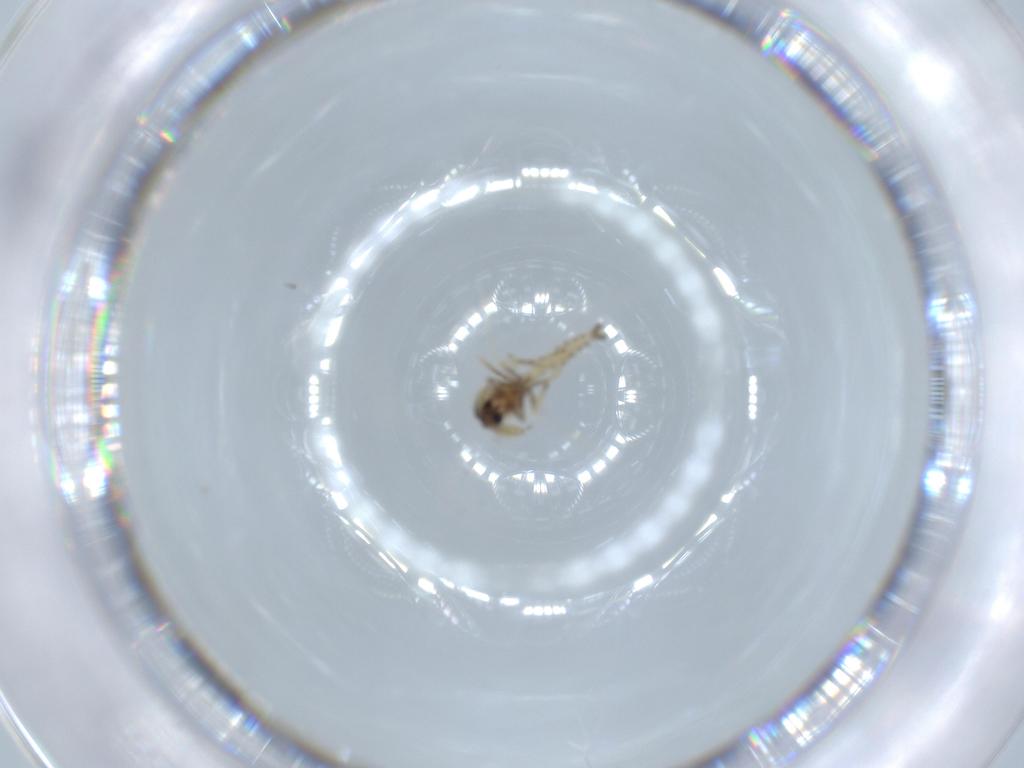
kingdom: Animalia
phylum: Arthropoda
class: Insecta
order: Diptera
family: Ceratopogonidae
